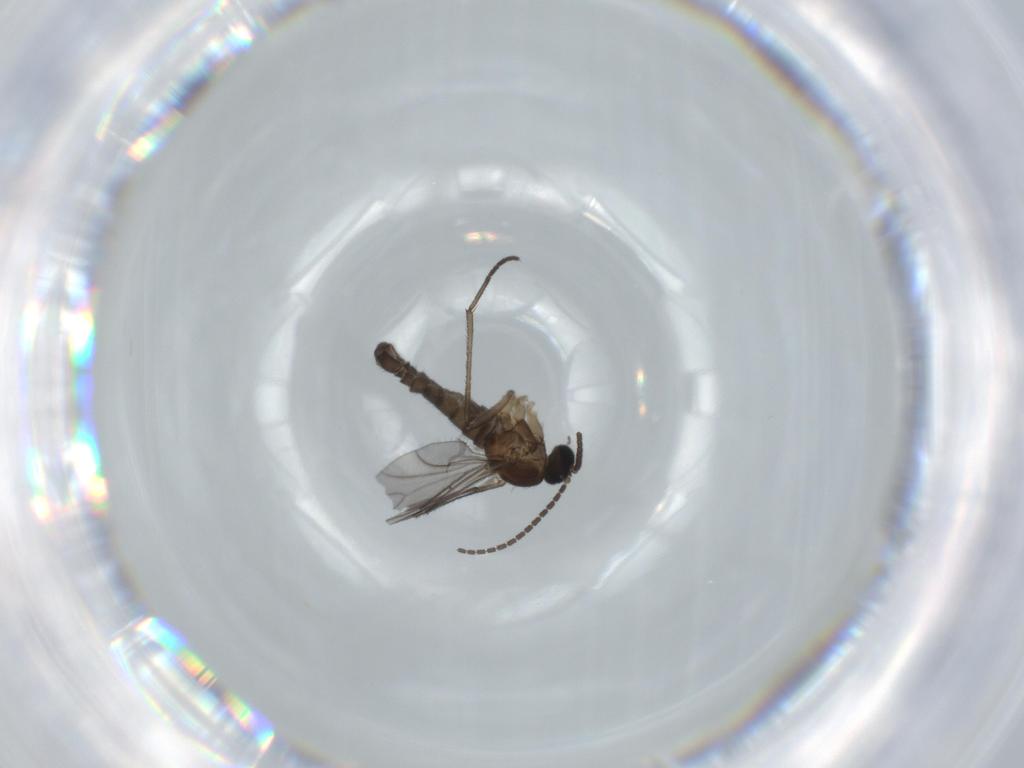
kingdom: Animalia
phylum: Arthropoda
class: Insecta
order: Diptera
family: Sciaridae
